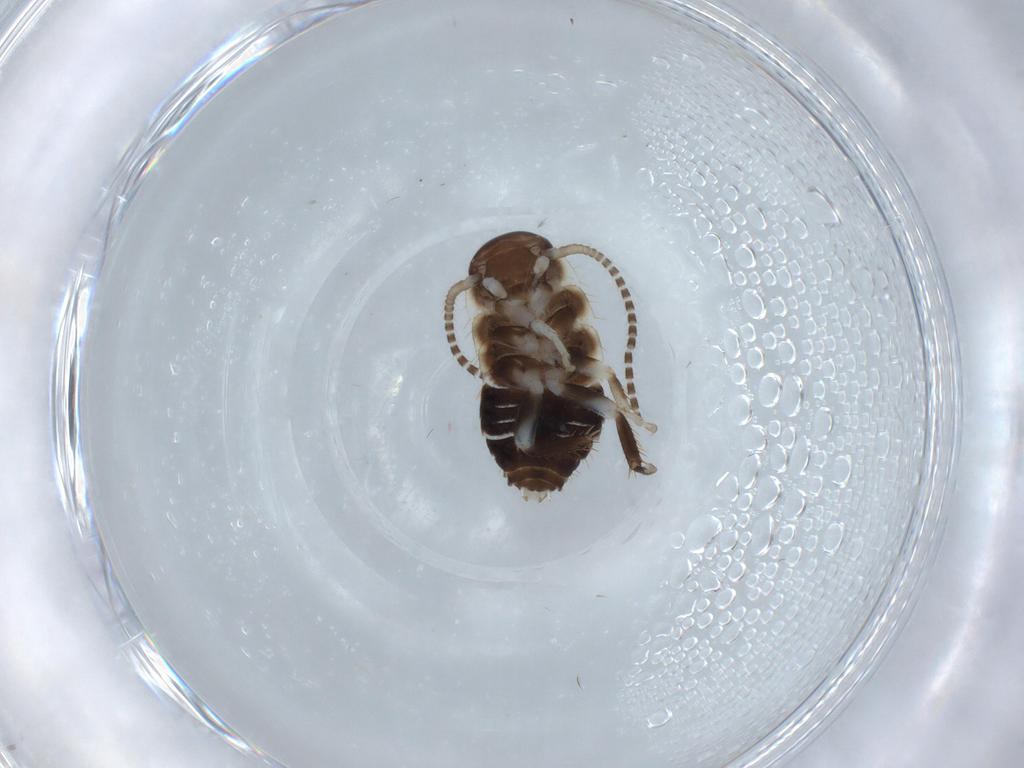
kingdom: Animalia
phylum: Arthropoda
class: Insecta
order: Blattodea
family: Ectobiidae
